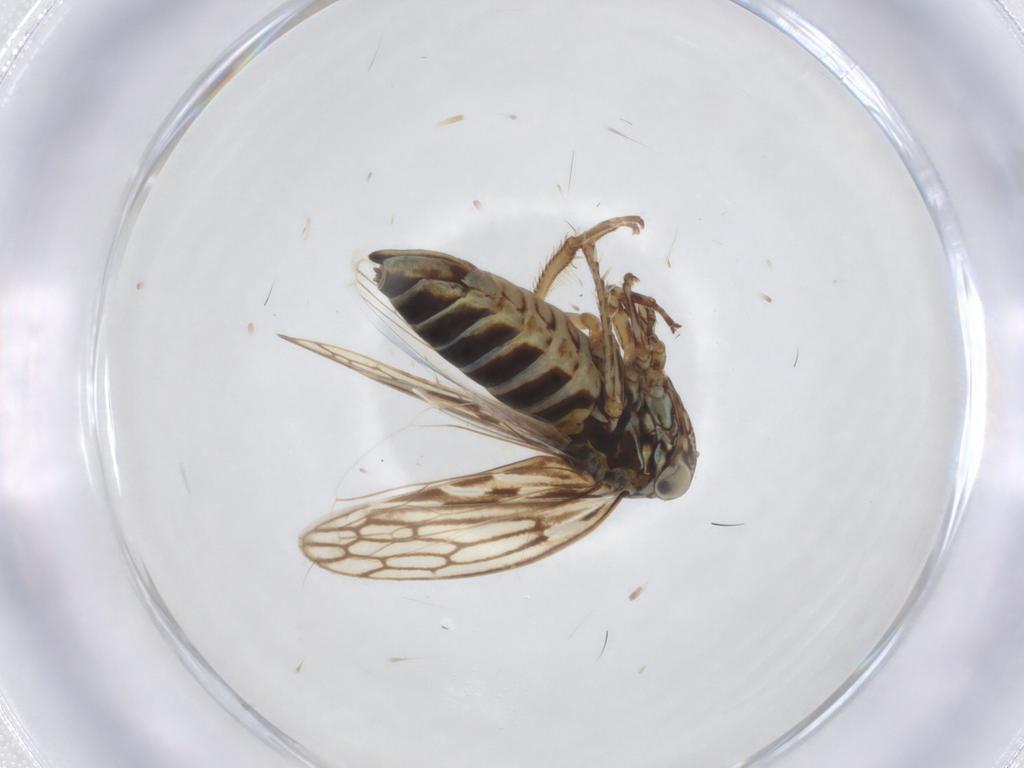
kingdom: Animalia
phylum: Arthropoda
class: Insecta
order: Hemiptera
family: Cicadellidae
